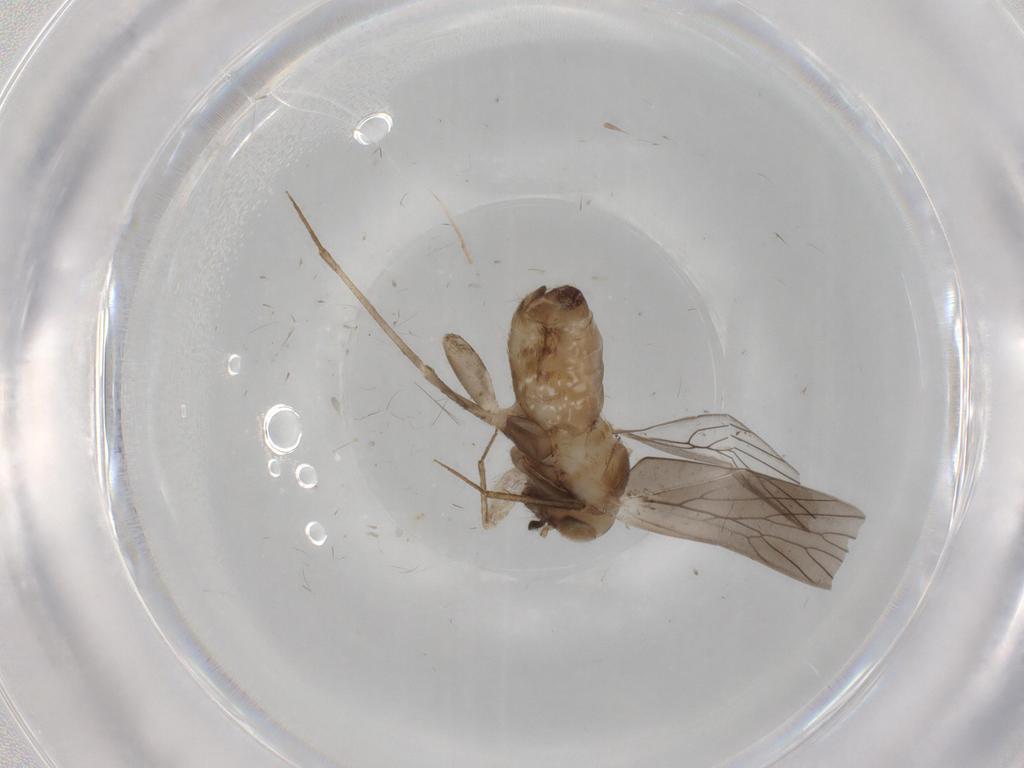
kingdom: Animalia
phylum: Arthropoda
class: Insecta
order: Psocodea
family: Lepidopsocidae
